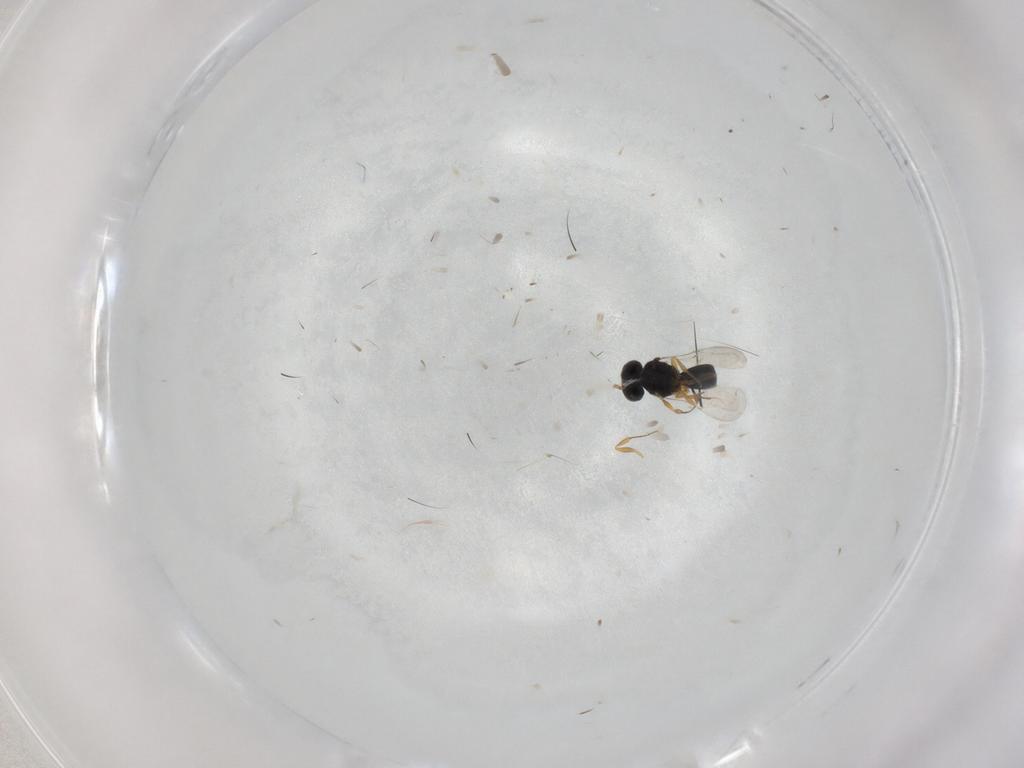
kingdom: Animalia
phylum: Arthropoda
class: Insecta
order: Hymenoptera
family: Scelionidae
